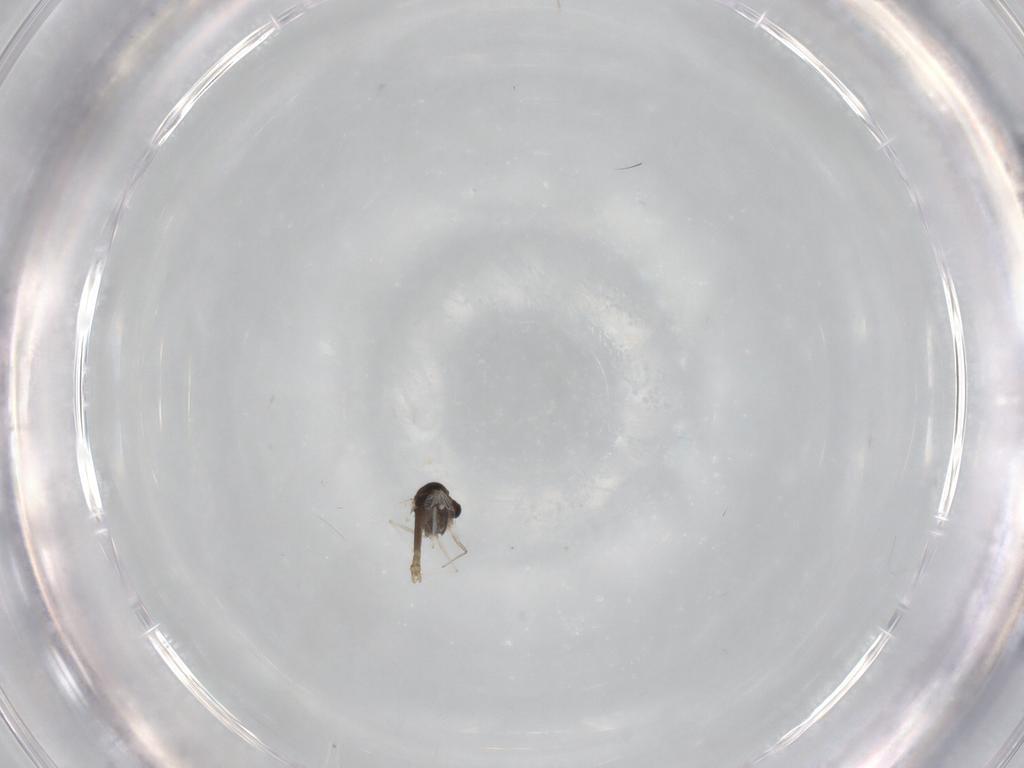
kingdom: Animalia
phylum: Arthropoda
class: Insecta
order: Diptera
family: Chironomidae
